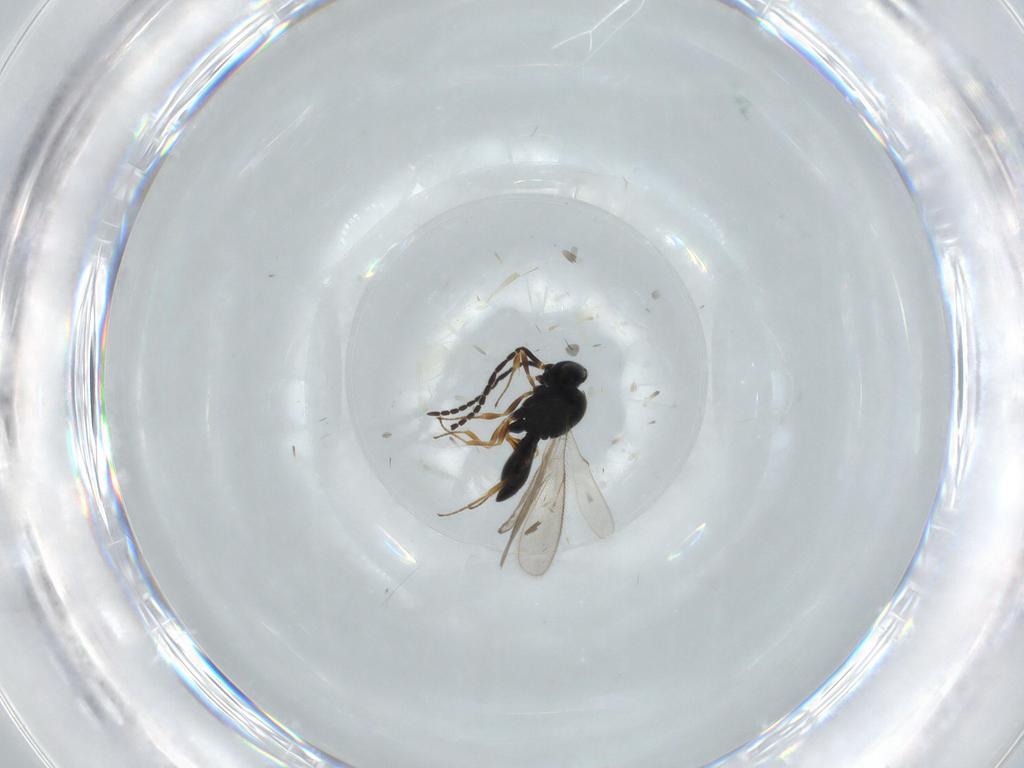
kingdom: Animalia
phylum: Arthropoda
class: Insecta
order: Hymenoptera
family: Scelionidae
